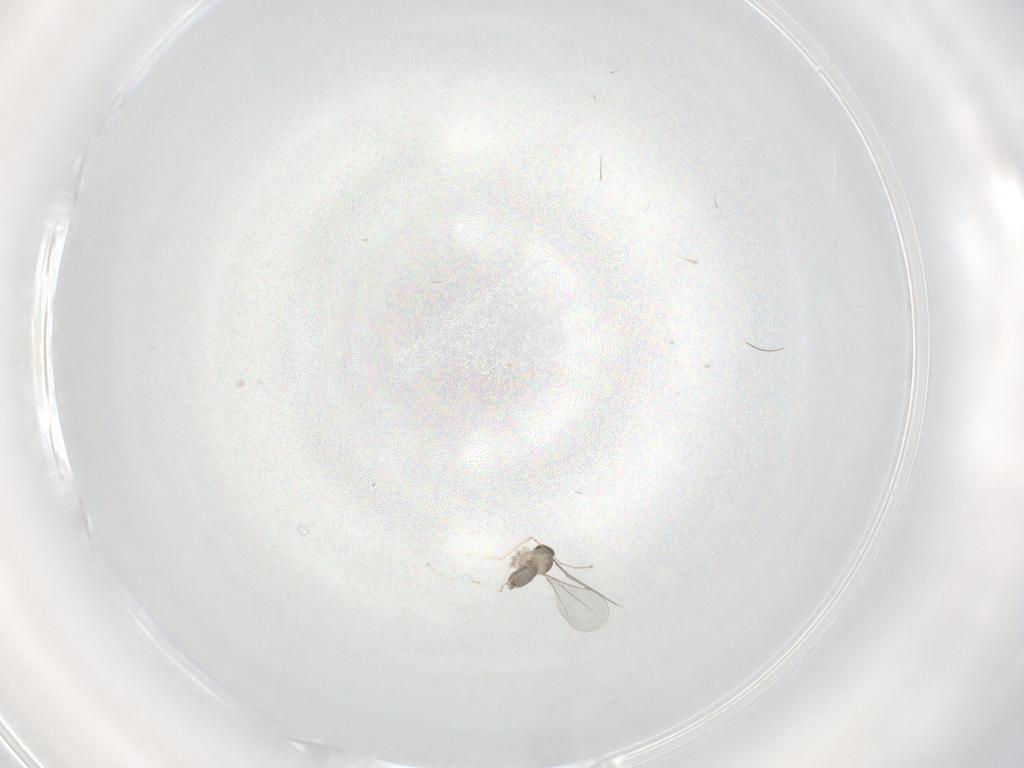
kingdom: Animalia
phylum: Arthropoda
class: Insecta
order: Diptera
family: Cecidomyiidae
